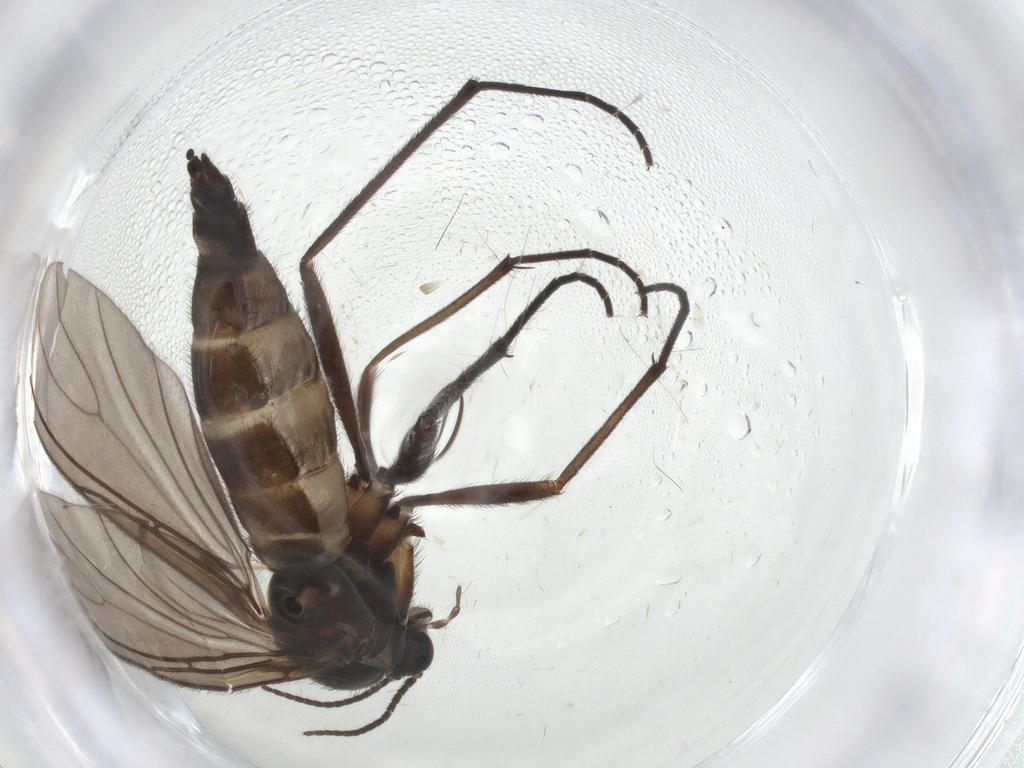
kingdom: Animalia
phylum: Arthropoda
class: Insecta
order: Diptera
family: Sciaridae
